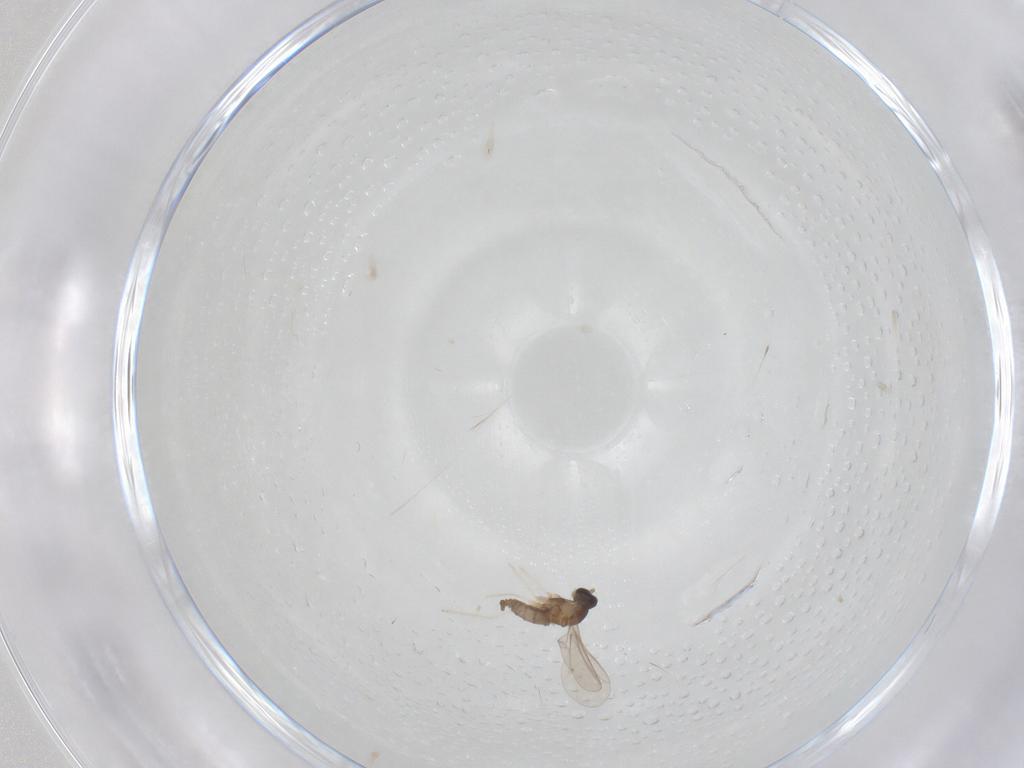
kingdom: Animalia
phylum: Arthropoda
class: Insecta
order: Diptera
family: Cecidomyiidae
